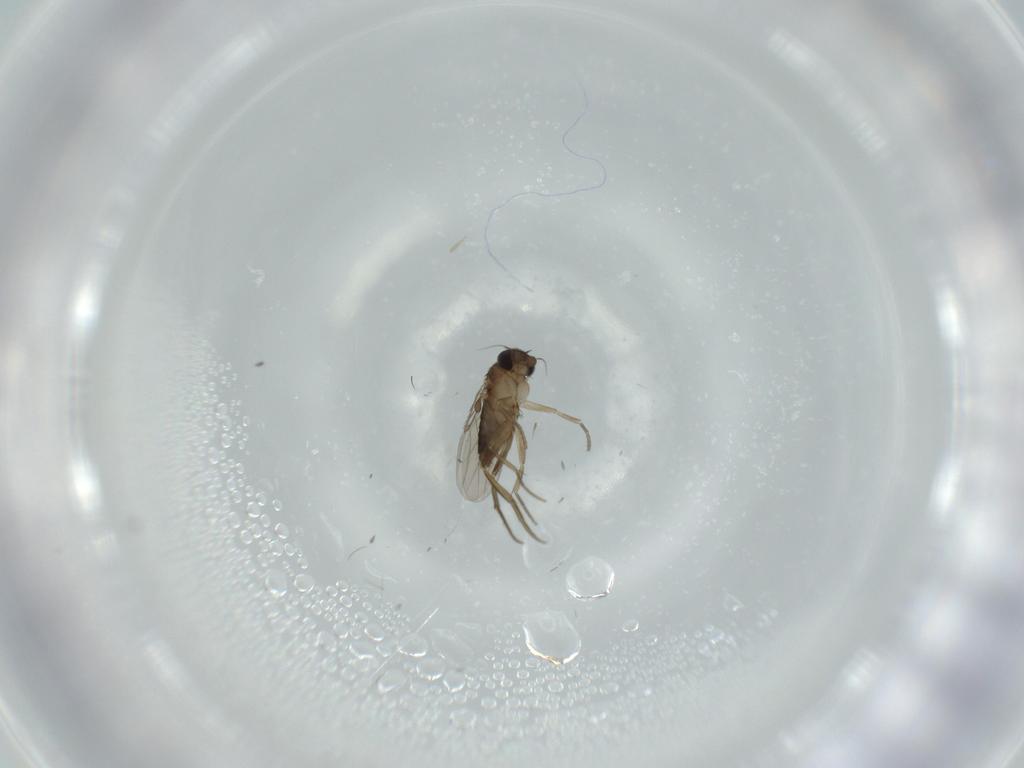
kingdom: Animalia
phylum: Arthropoda
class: Insecta
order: Diptera
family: Phoridae
